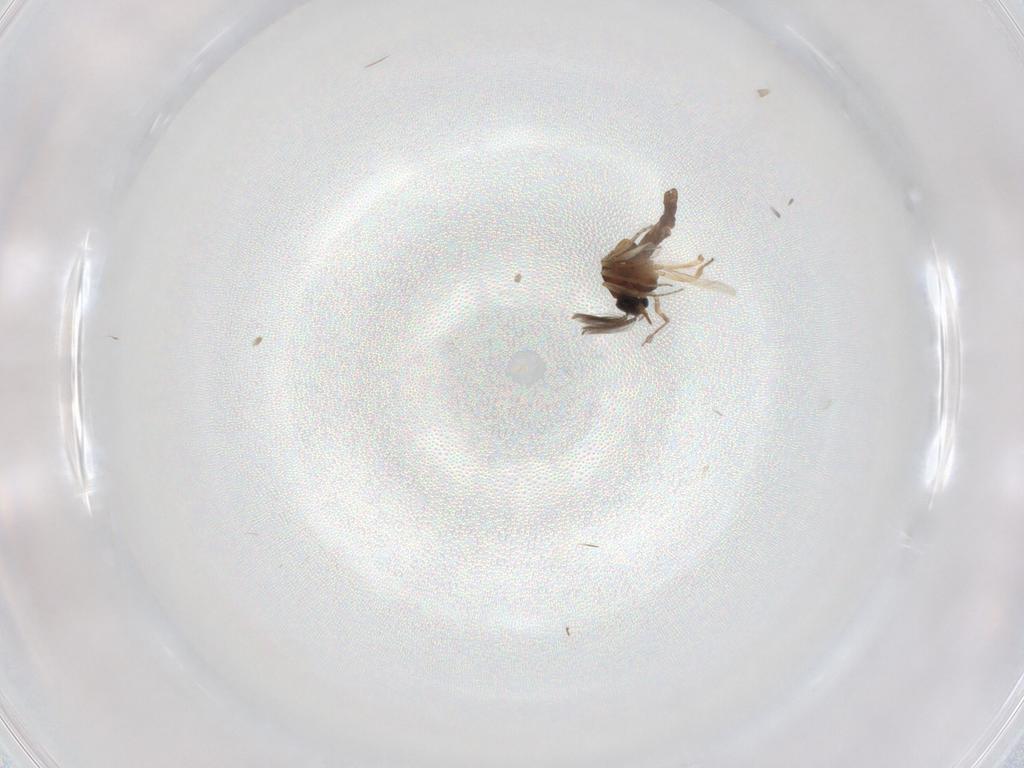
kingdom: Animalia
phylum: Arthropoda
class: Insecta
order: Diptera
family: Ceratopogonidae
